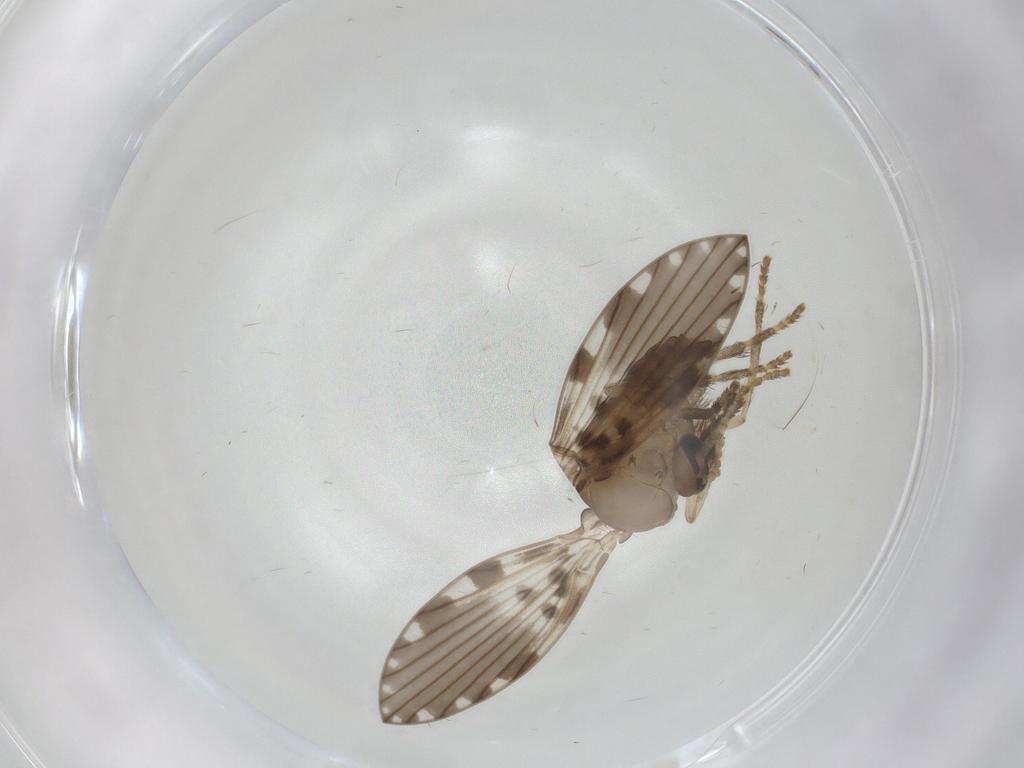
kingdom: Animalia
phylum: Arthropoda
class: Insecta
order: Diptera
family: Psychodidae
